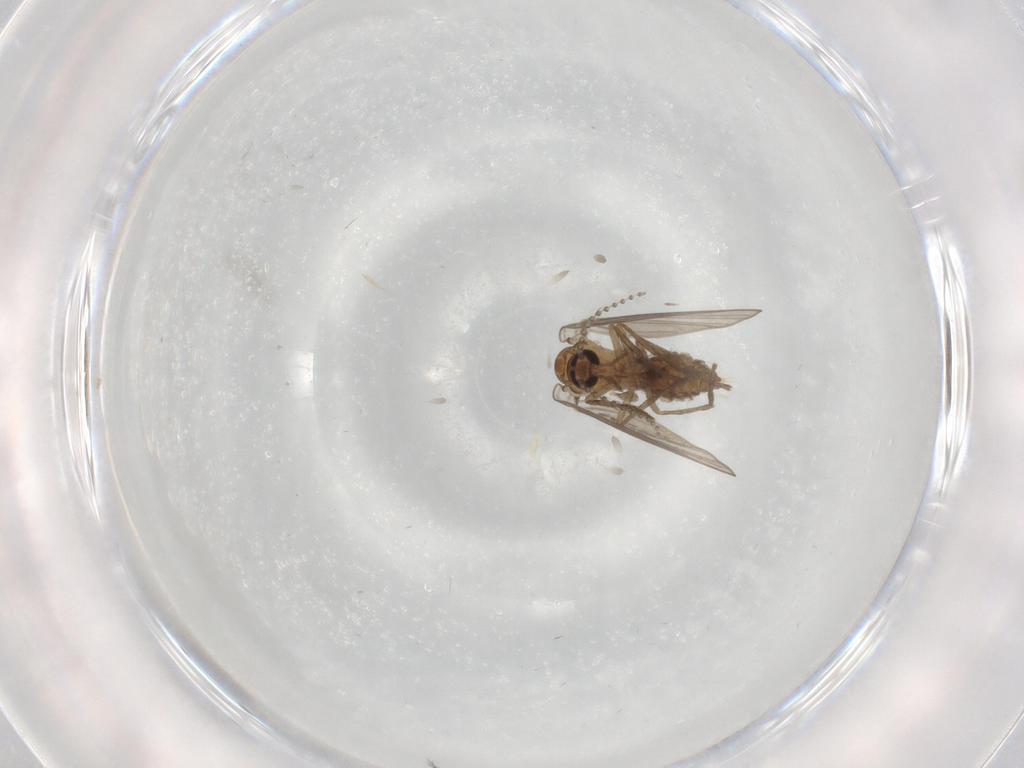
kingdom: Animalia
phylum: Arthropoda
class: Insecta
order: Diptera
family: Psychodidae
